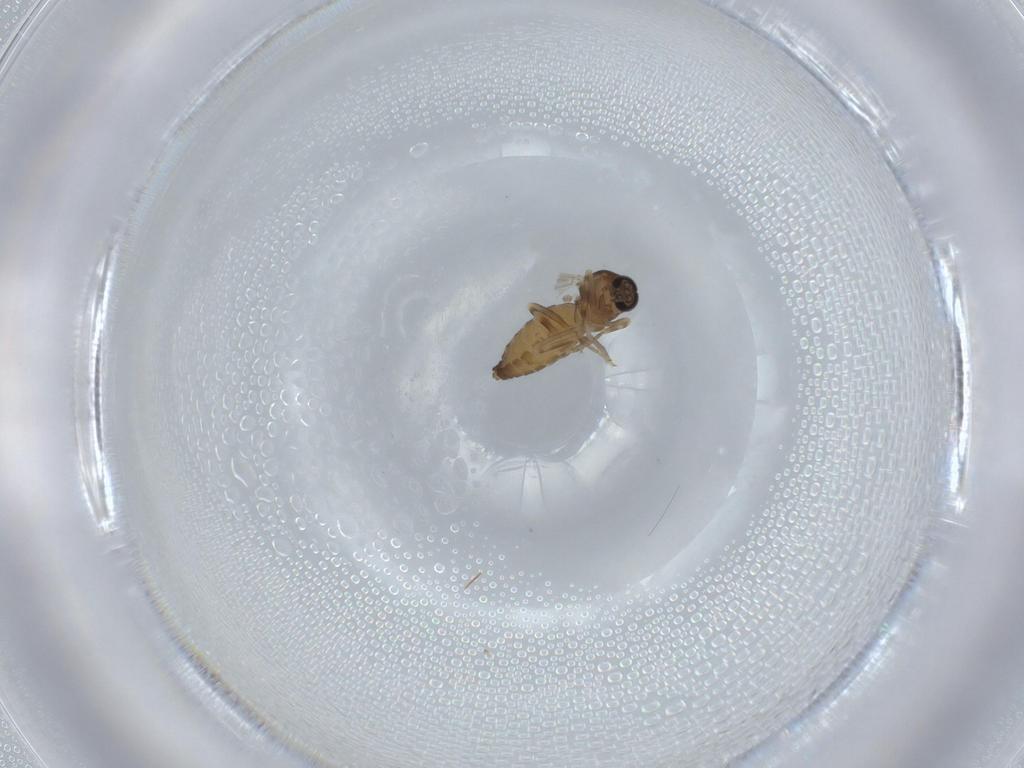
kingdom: Animalia
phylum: Arthropoda
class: Insecta
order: Diptera
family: Ceratopogonidae
